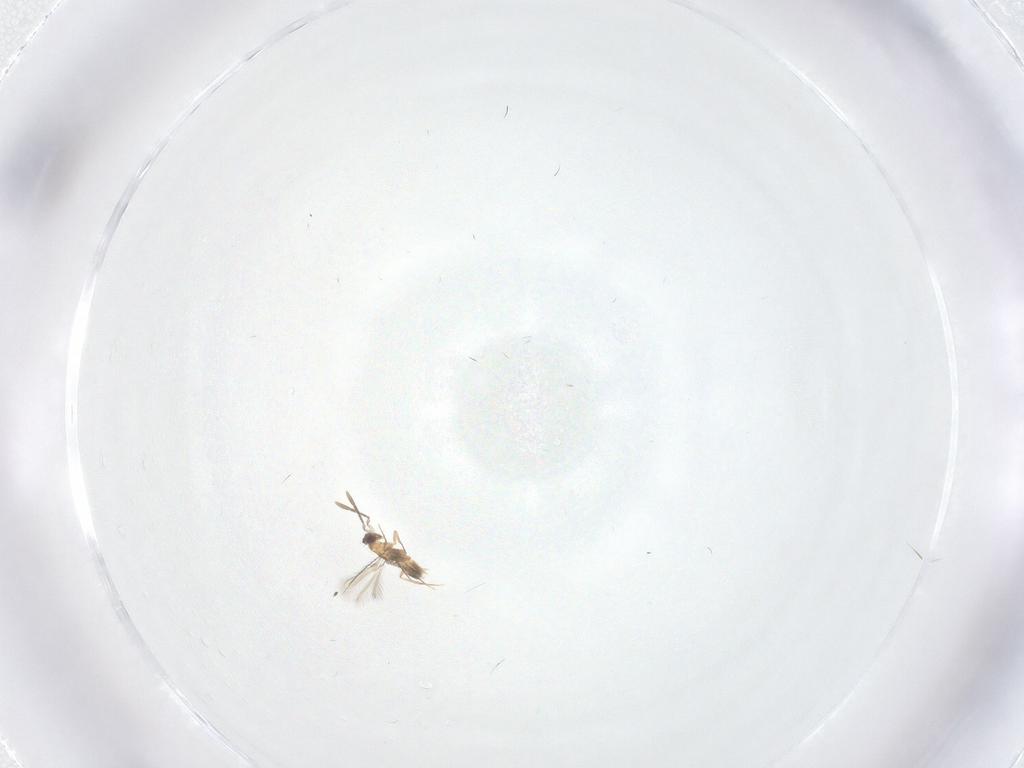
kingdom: Animalia
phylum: Arthropoda
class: Insecta
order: Hymenoptera
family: Mymaridae
